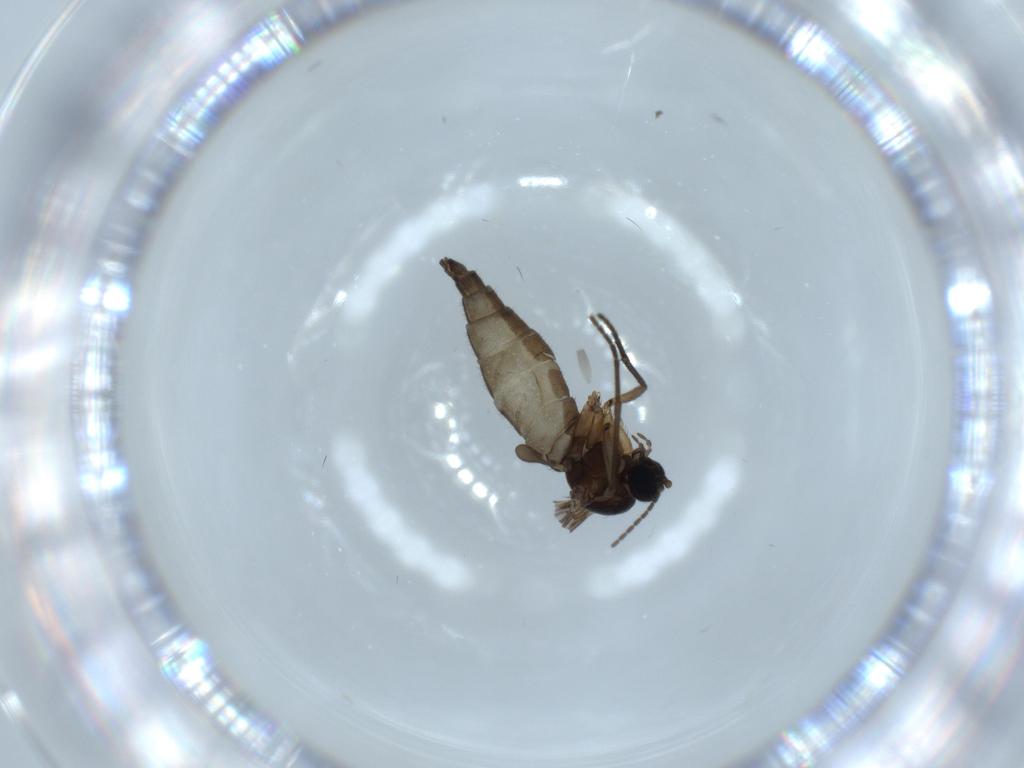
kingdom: Animalia
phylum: Arthropoda
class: Insecta
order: Diptera
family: Sciaridae
